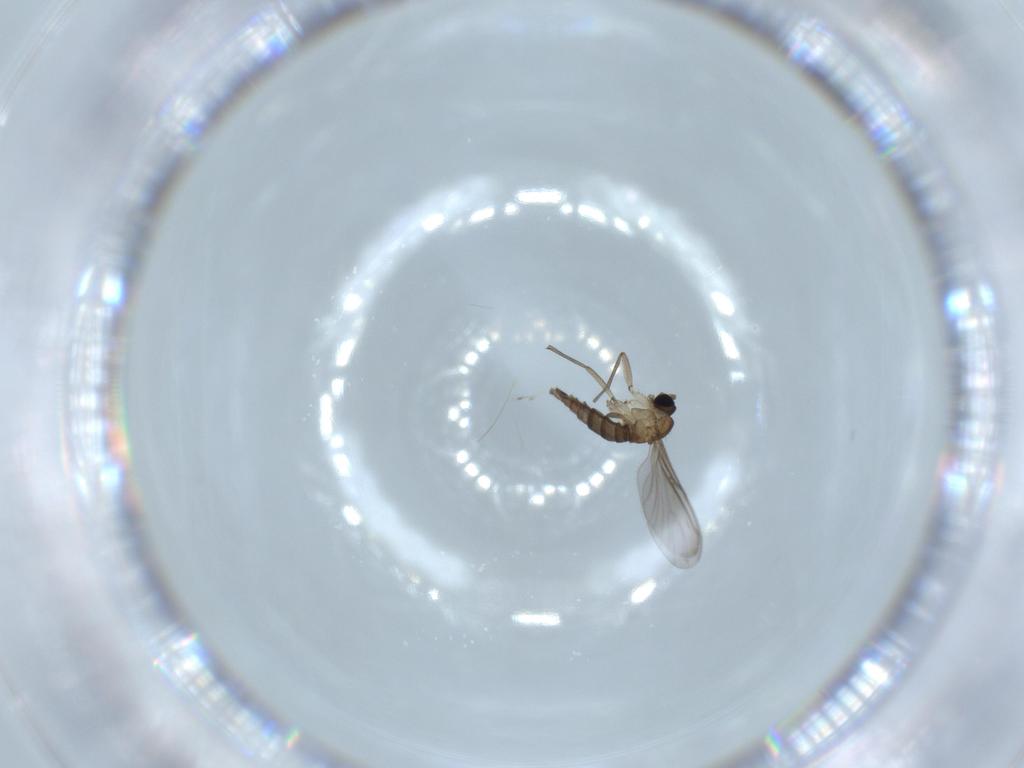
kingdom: Animalia
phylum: Arthropoda
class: Insecta
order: Diptera
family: Sciaridae
